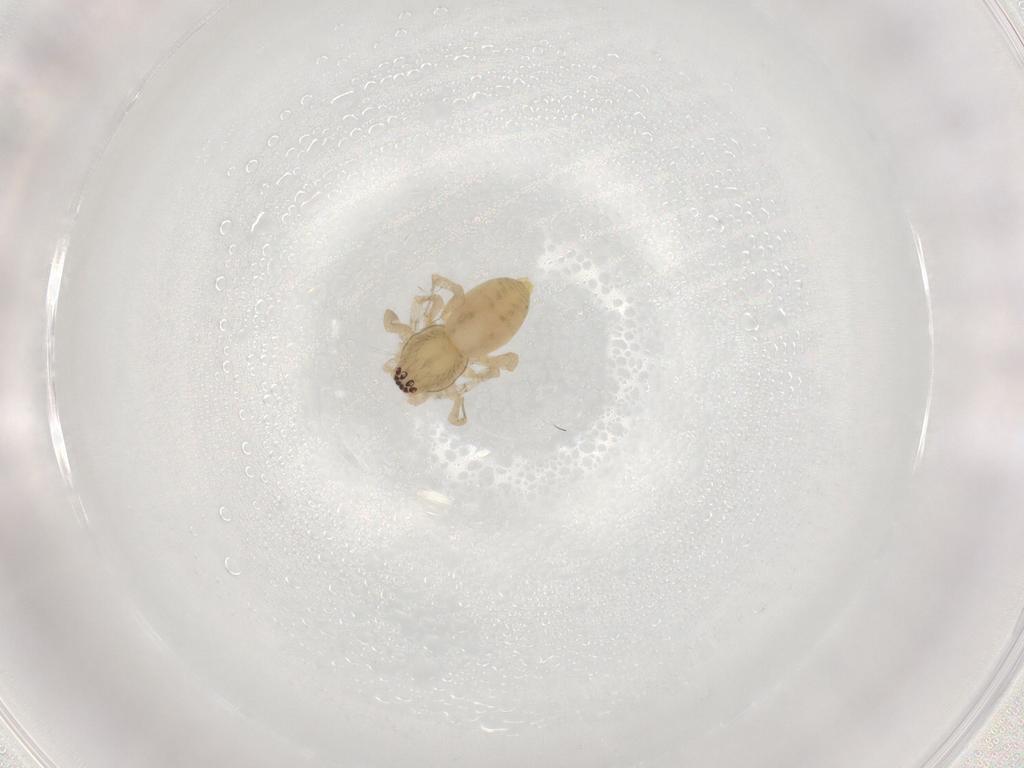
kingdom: Animalia
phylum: Arthropoda
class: Arachnida
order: Araneae
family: Anyphaenidae
